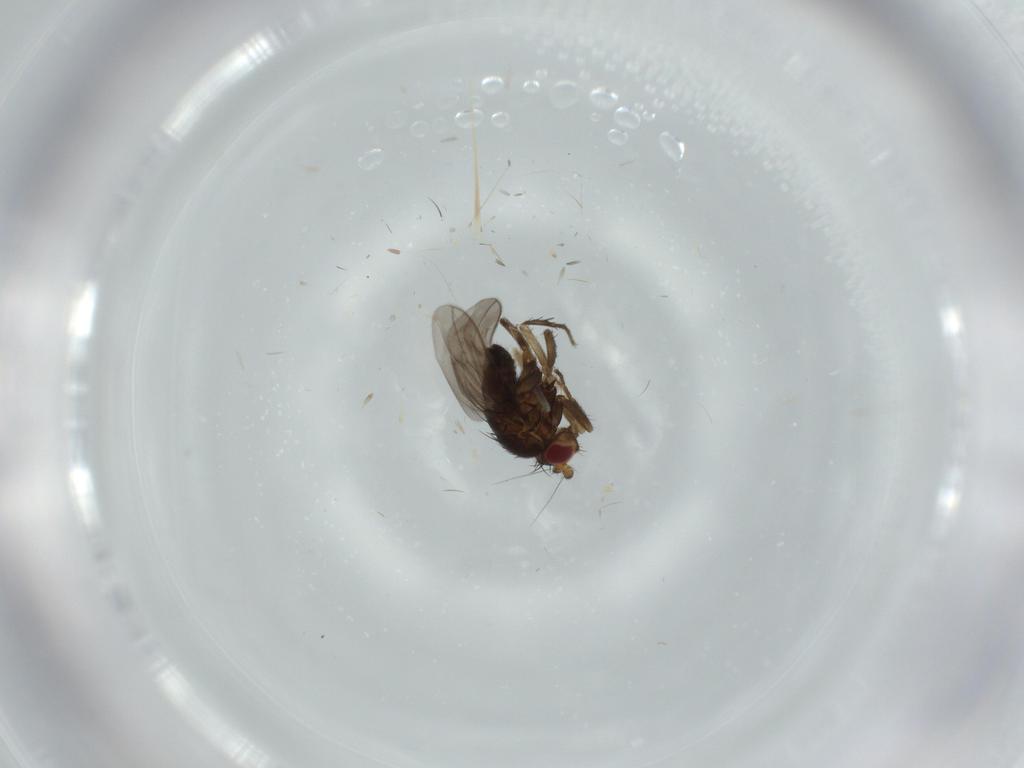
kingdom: Animalia
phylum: Arthropoda
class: Insecta
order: Diptera
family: Sphaeroceridae
